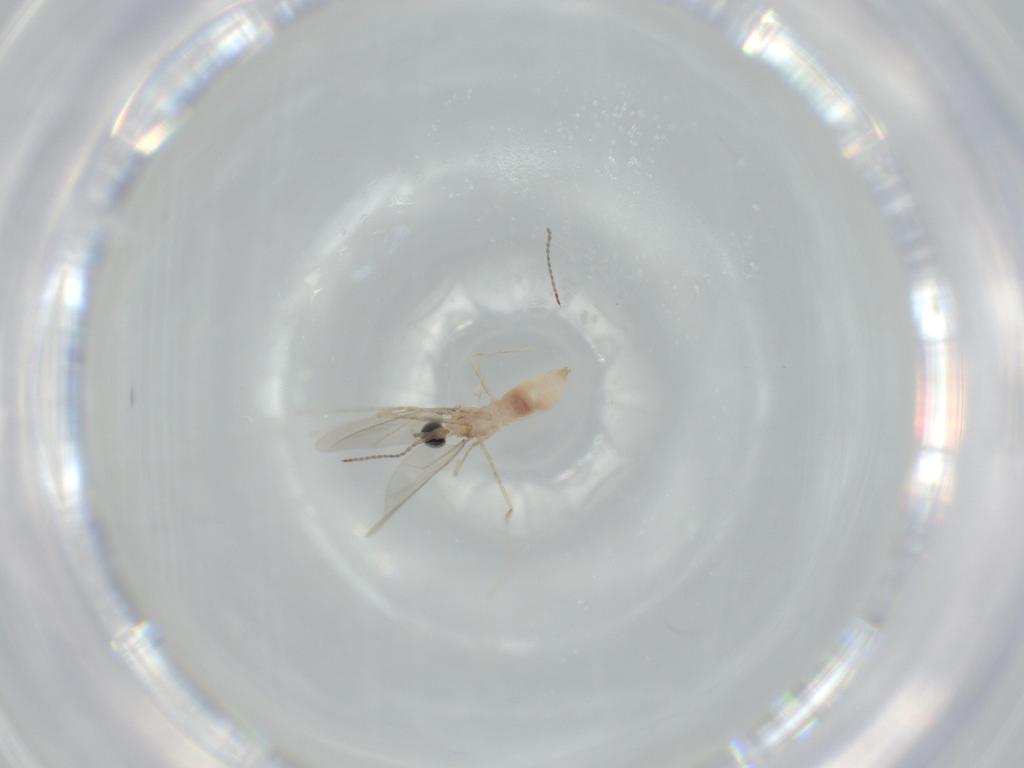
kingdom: Animalia
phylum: Arthropoda
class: Insecta
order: Diptera
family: Cecidomyiidae
